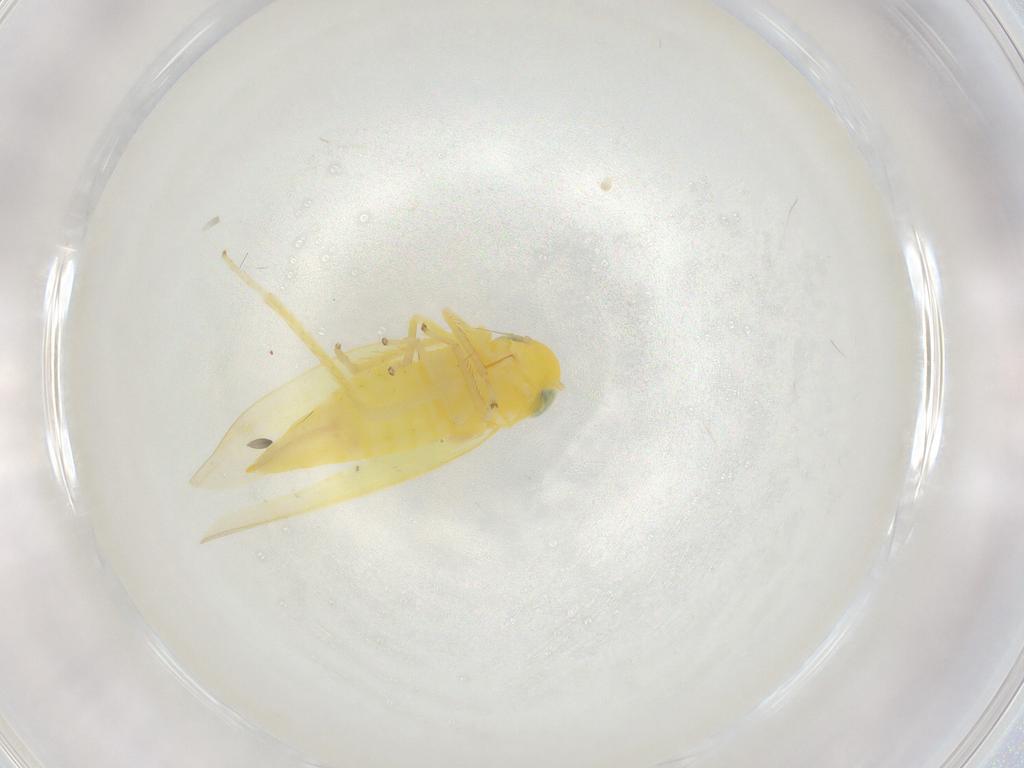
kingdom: Animalia
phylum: Arthropoda
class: Insecta
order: Hemiptera
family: Cicadellidae
